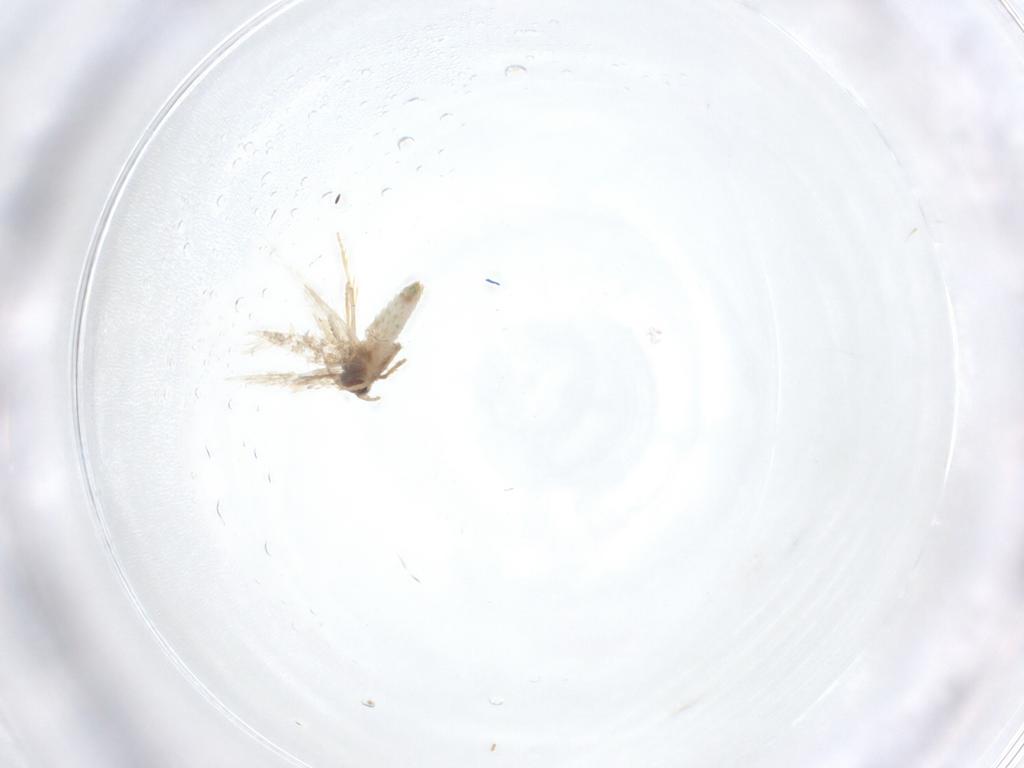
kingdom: Animalia
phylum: Arthropoda
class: Insecta
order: Lepidoptera
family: Nepticulidae
